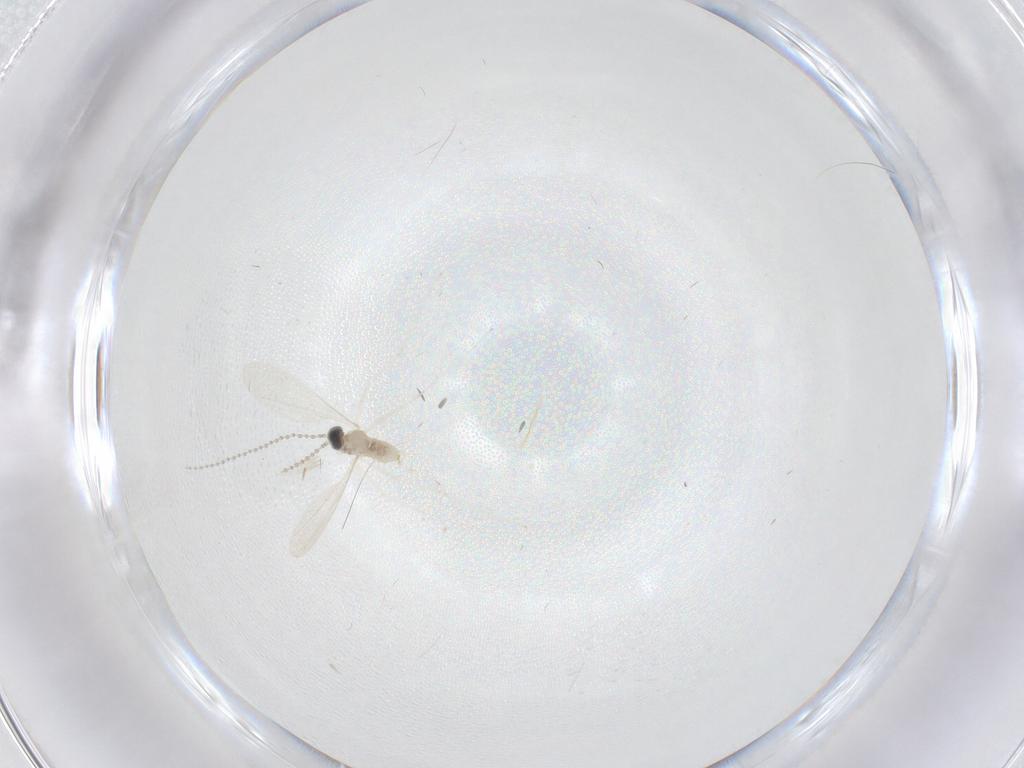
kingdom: Animalia
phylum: Arthropoda
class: Insecta
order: Diptera
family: Cecidomyiidae
